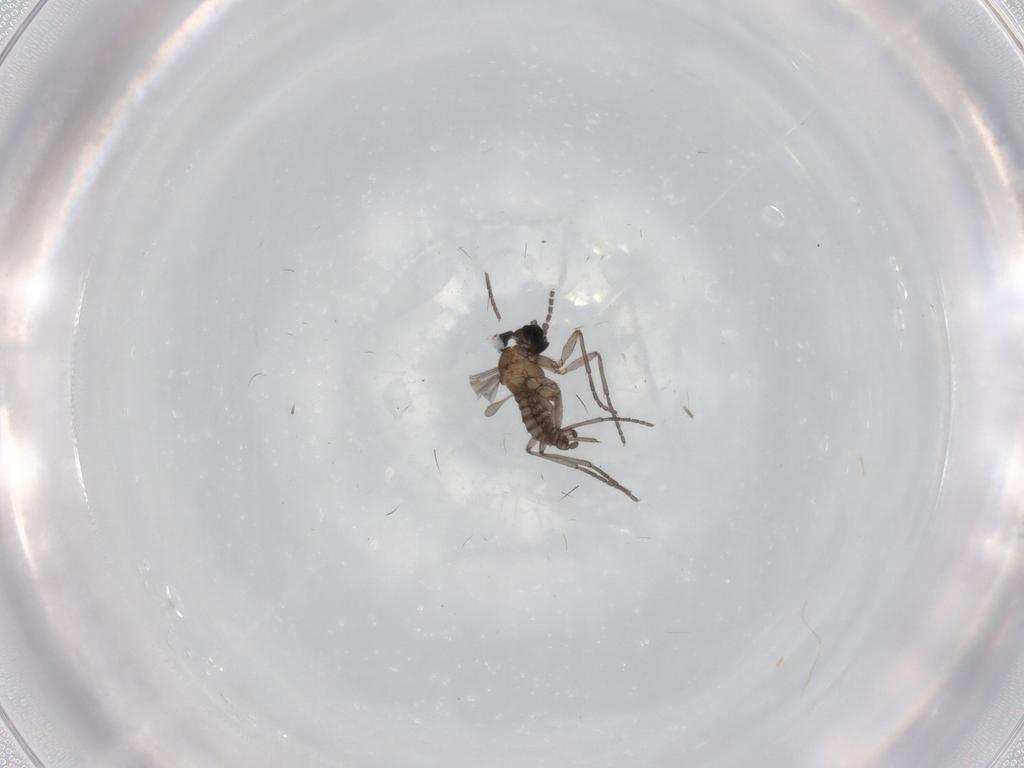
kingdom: Animalia
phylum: Arthropoda
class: Insecta
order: Diptera
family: Sciaridae
